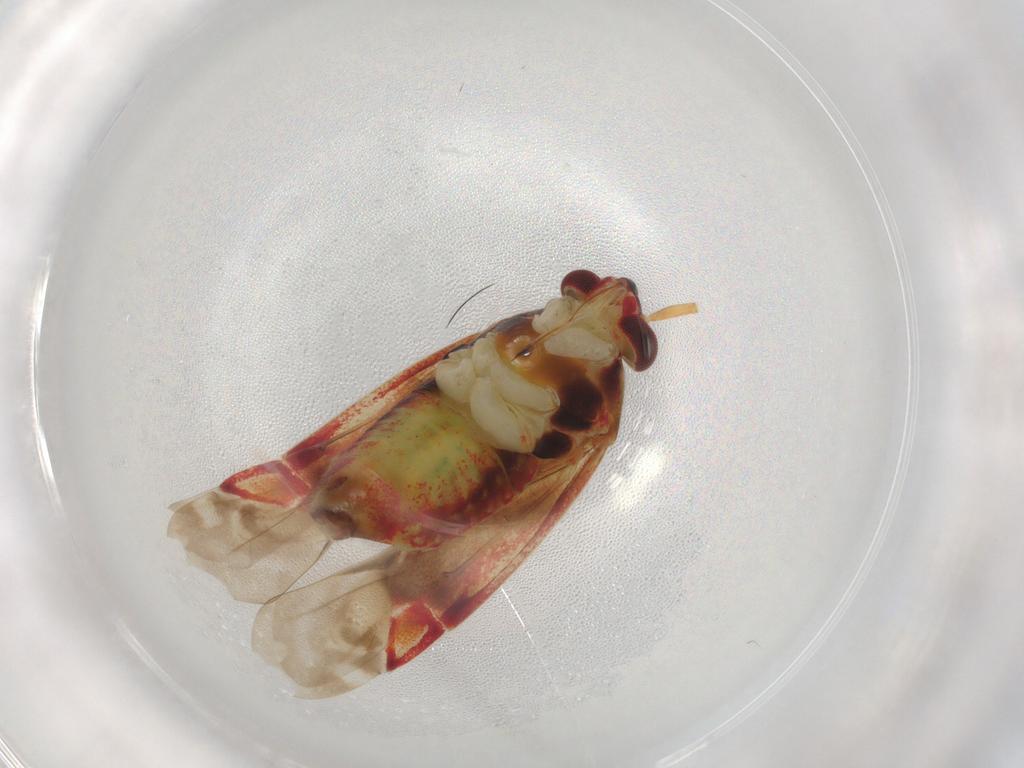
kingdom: Animalia
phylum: Arthropoda
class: Insecta
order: Hemiptera
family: Miridae
